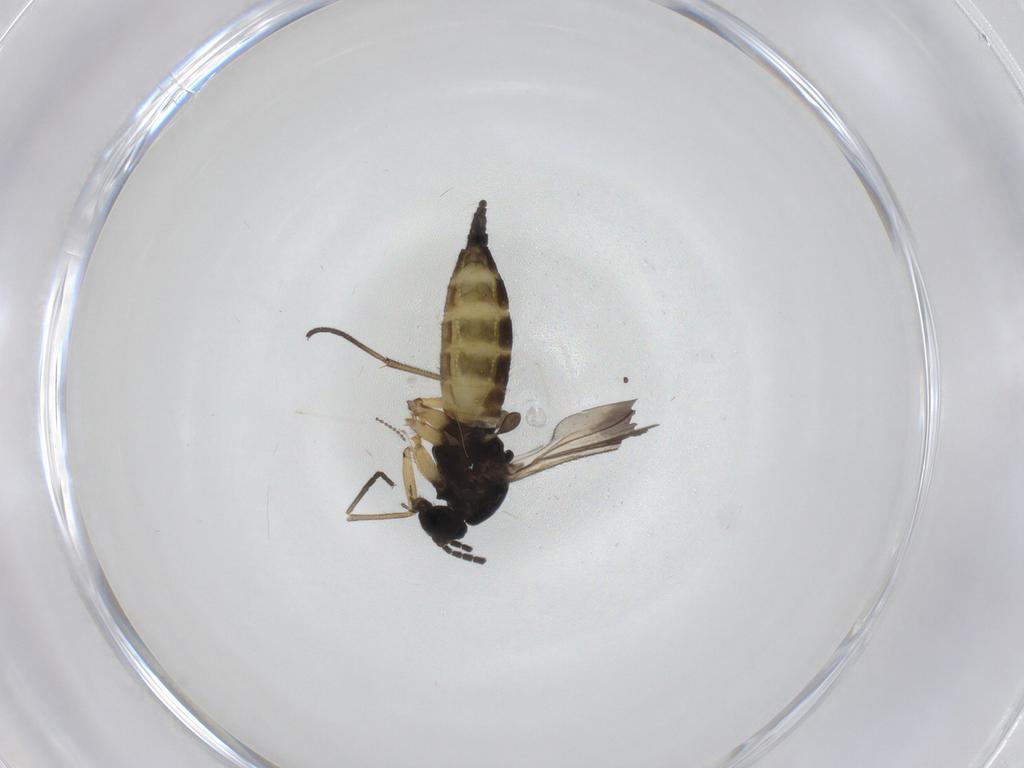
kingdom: Animalia
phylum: Arthropoda
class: Insecta
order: Diptera
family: Sciaridae
